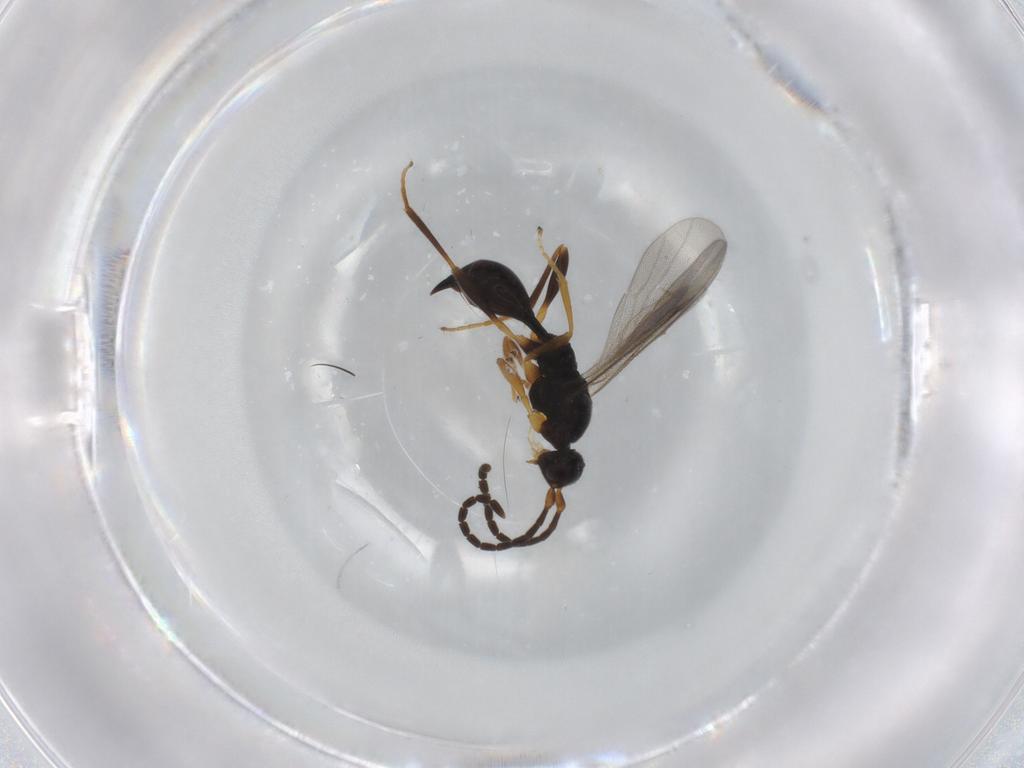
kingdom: Animalia
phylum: Arthropoda
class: Insecta
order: Hymenoptera
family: Proctotrupidae
